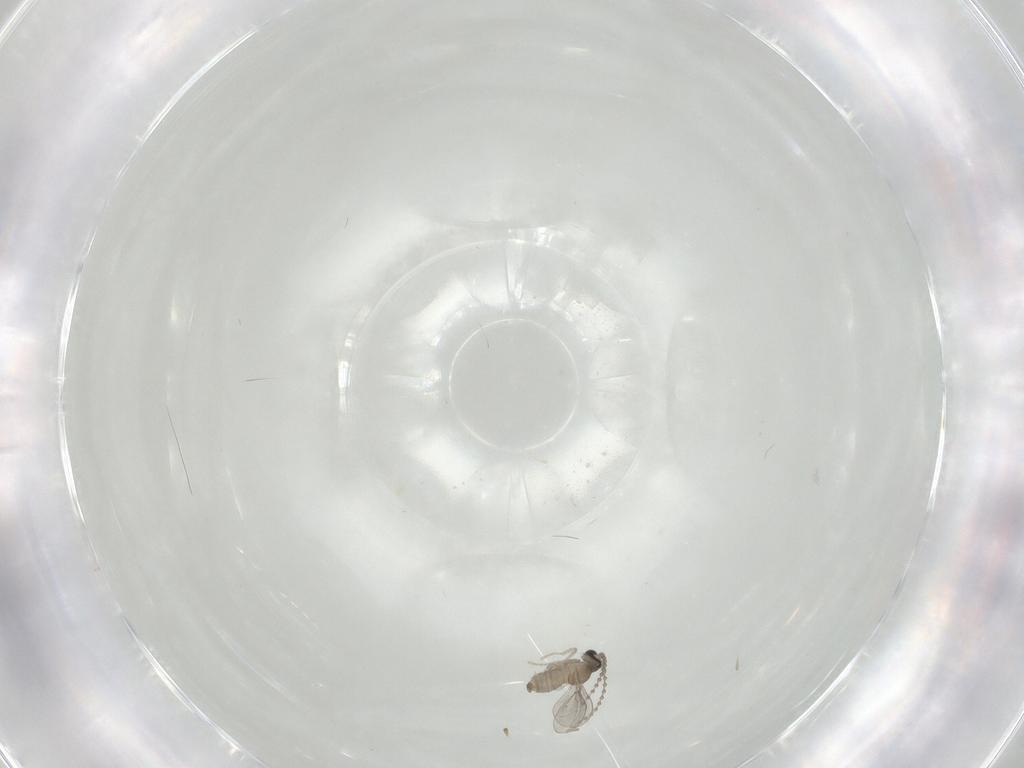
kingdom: Animalia
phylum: Arthropoda
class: Insecta
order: Diptera
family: Cecidomyiidae
